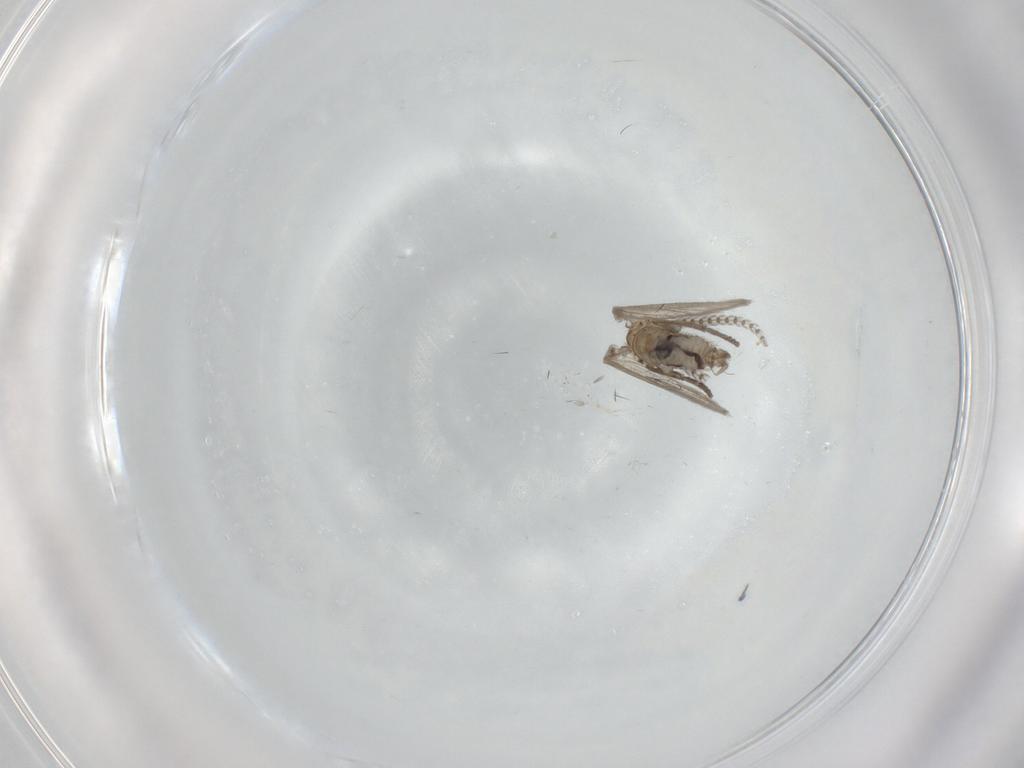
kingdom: Animalia
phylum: Arthropoda
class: Insecta
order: Diptera
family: Psychodidae
